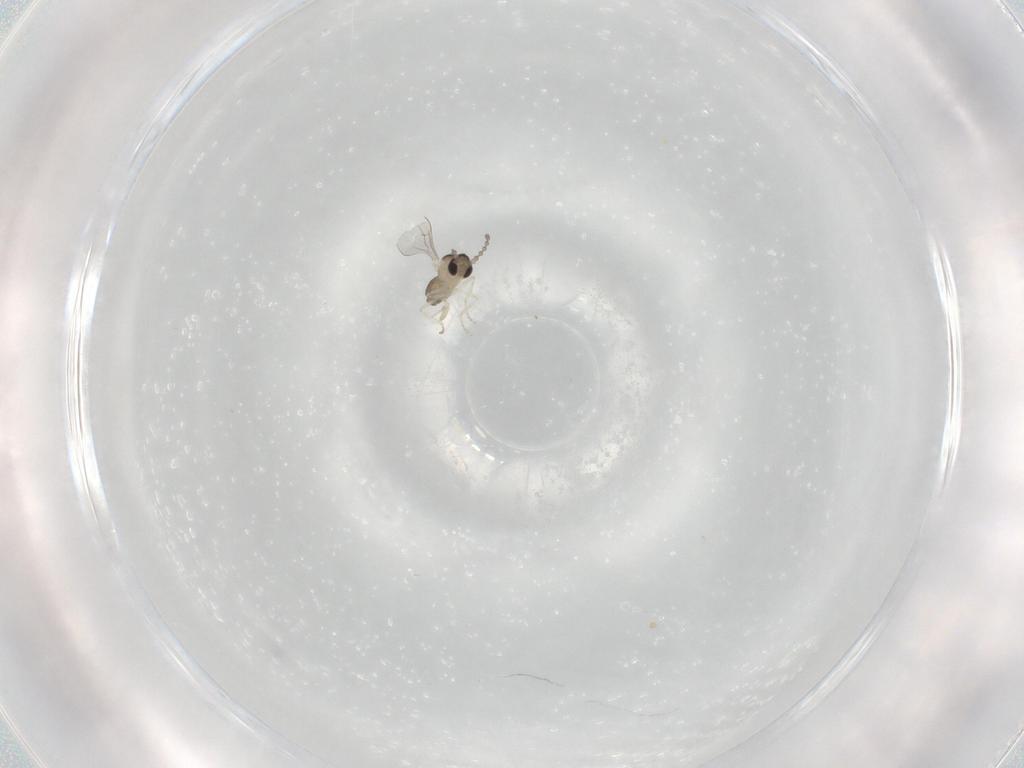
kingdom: Animalia
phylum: Arthropoda
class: Insecta
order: Diptera
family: Cecidomyiidae
